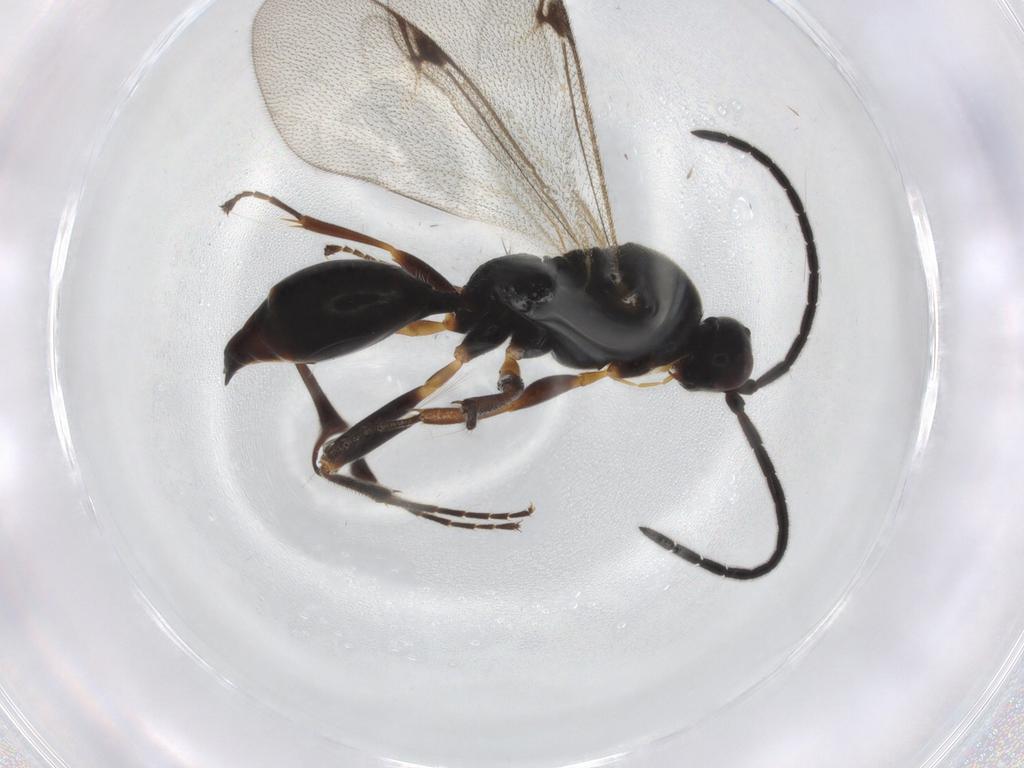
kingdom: Animalia
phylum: Arthropoda
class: Insecta
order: Hymenoptera
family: Proctotrupidae
